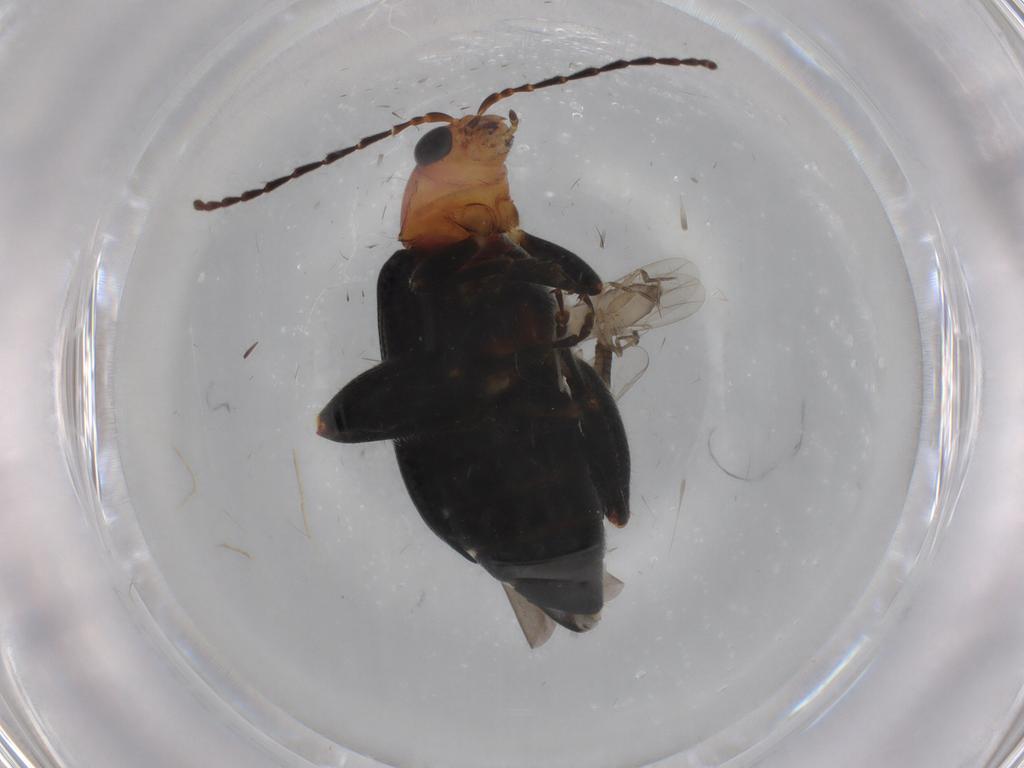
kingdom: Animalia
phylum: Arthropoda
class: Insecta
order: Coleoptera
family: Chrysomelidae
